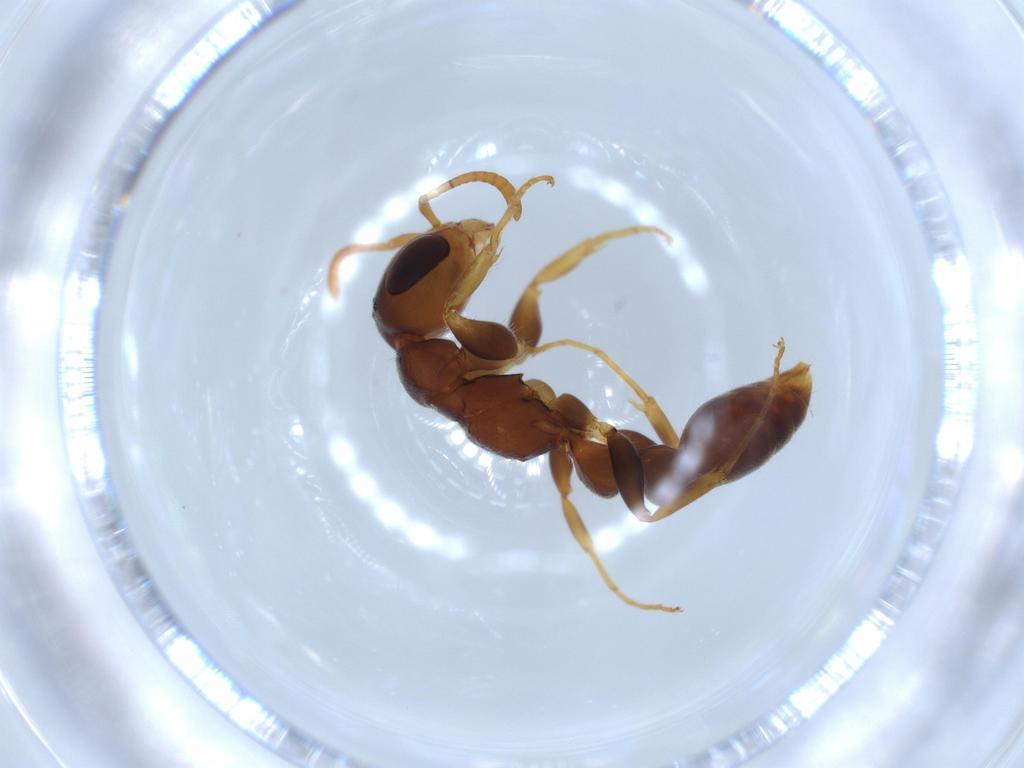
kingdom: Animalia
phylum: Arthropoda
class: Insecta
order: Hymenoptera
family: Formicidae
